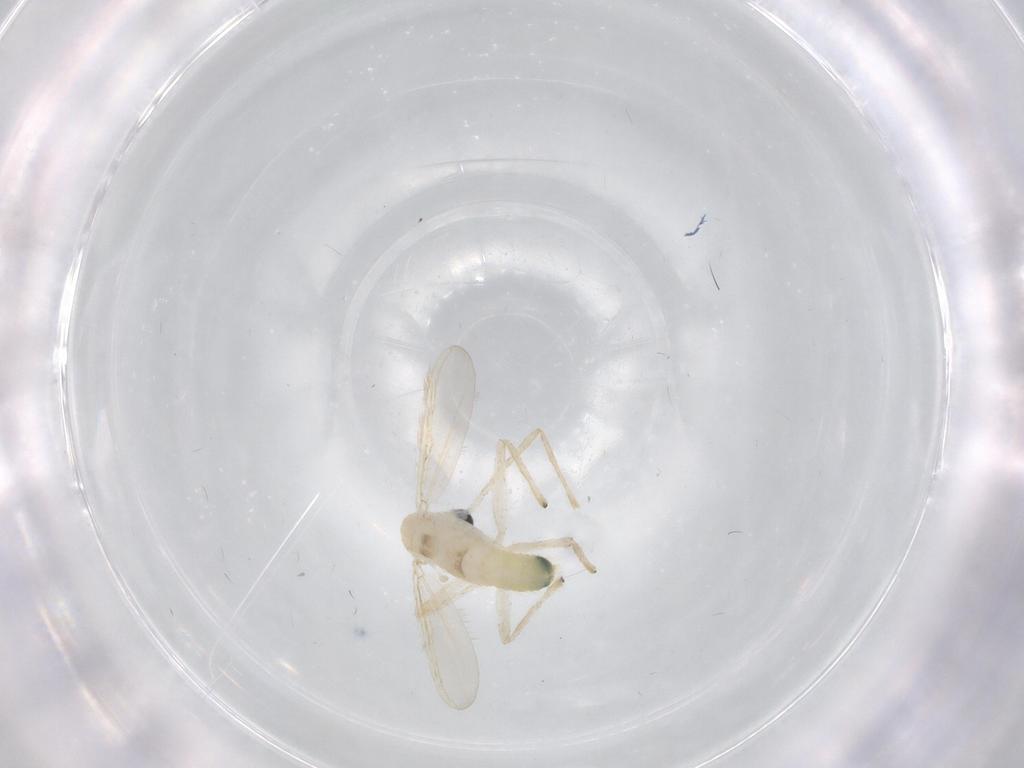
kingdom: Animalia
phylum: Arthropoda
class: Insecta
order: Diptera
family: Chironomidae
